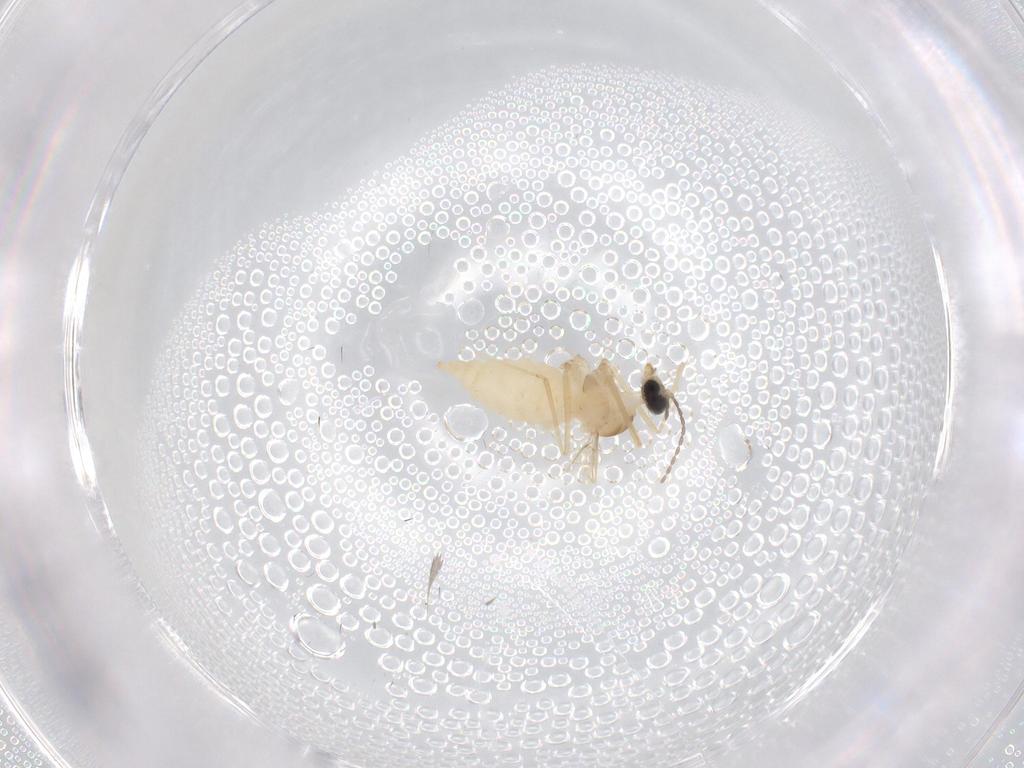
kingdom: Animalia
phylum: Arthropoda
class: Insecta
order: Diptera
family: Cecidomyiidae
